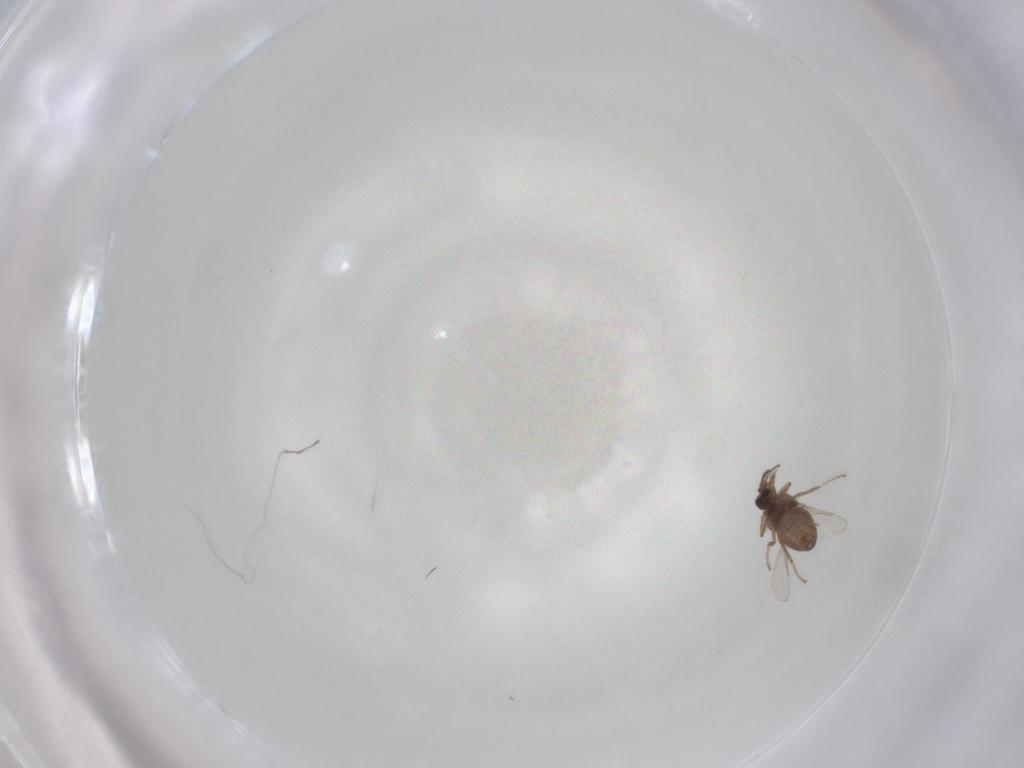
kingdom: Animalia
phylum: Arthropoda
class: Insecta
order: Diptera
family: Ceratopogonidae
